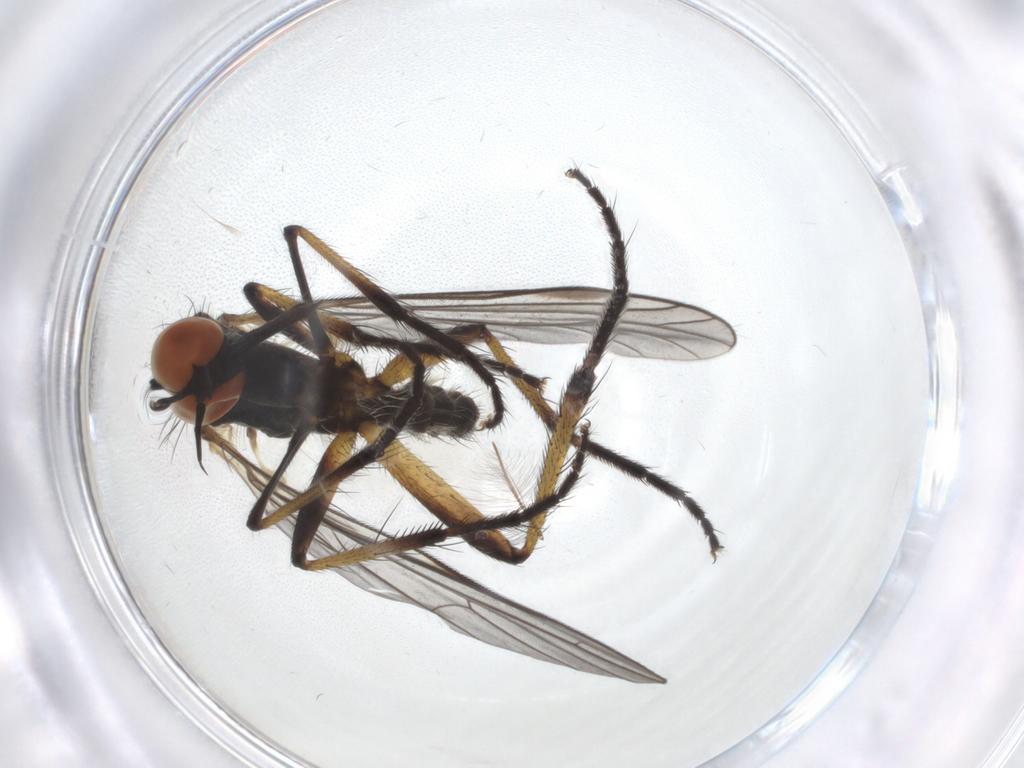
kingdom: Animalia
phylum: Arthropoda
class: Insecta
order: Diptera
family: Empididae
